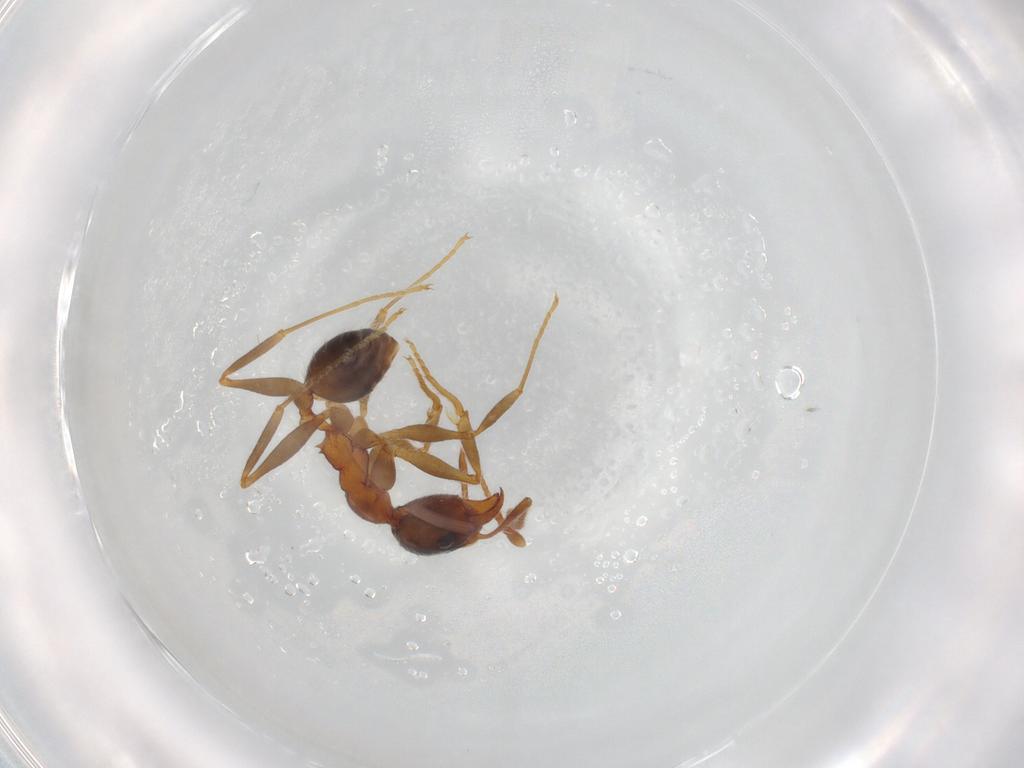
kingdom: Animalia
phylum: Arthropoda
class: Insecta
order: Hymenoptera
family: Formicidae
